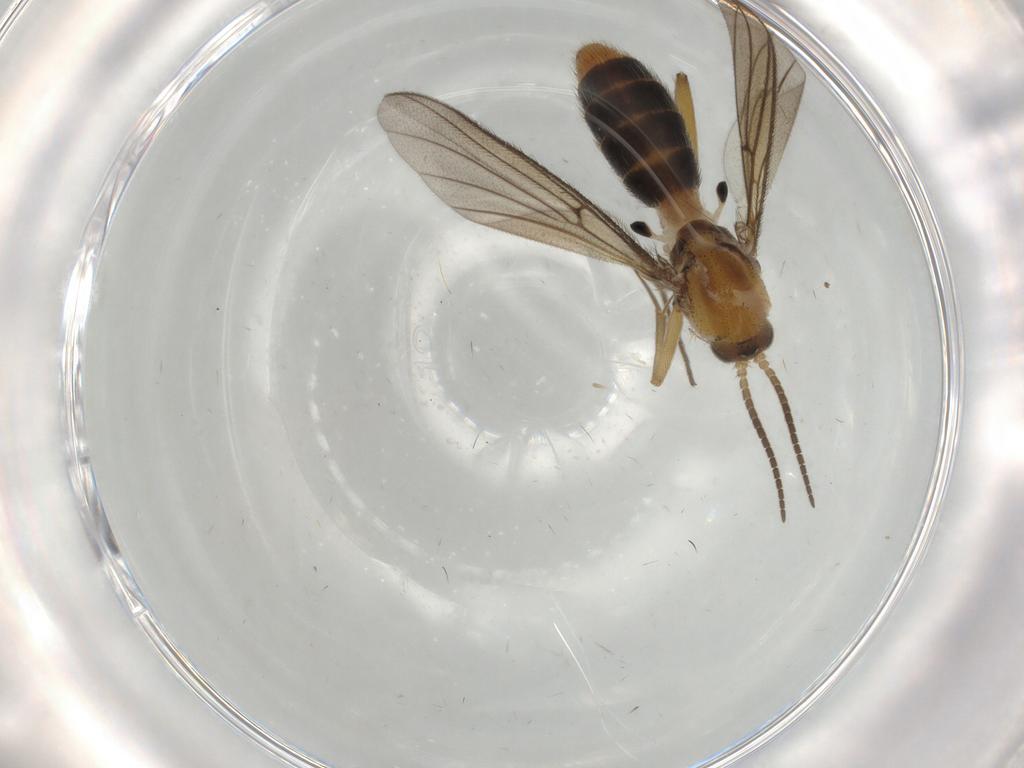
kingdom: Animalia
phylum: Arthropoda
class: Insecta
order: Diptera
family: Mycetophilidae
